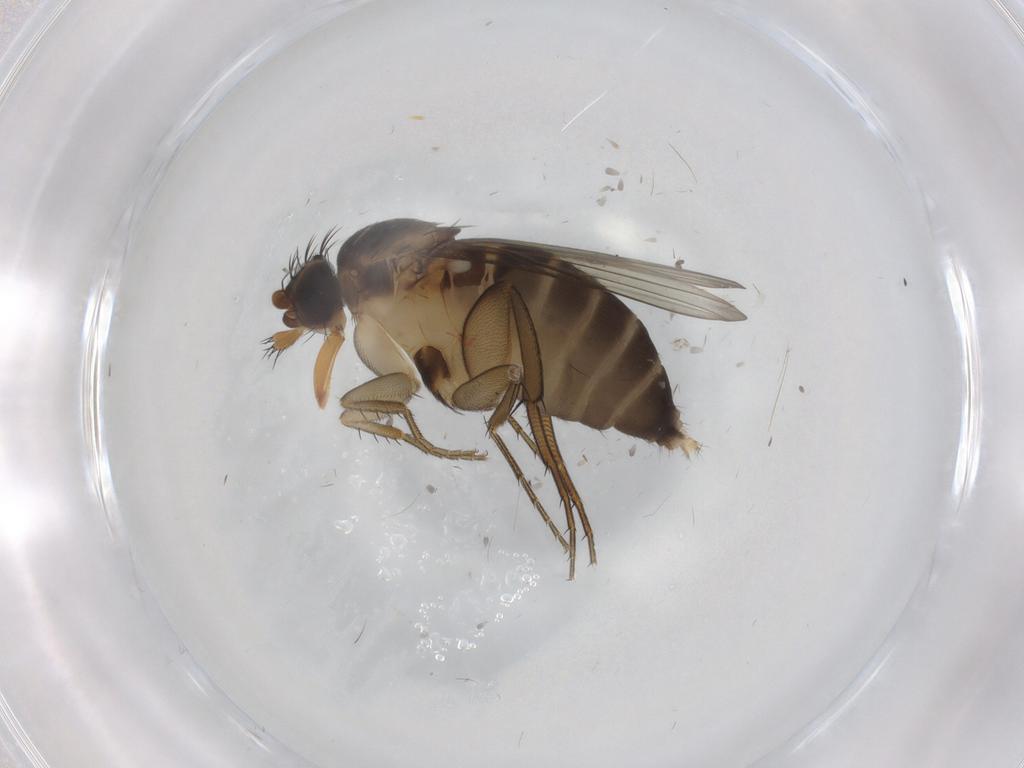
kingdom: Animalia
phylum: Arthropoda
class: Insecta
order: Diptera
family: Phoridae
